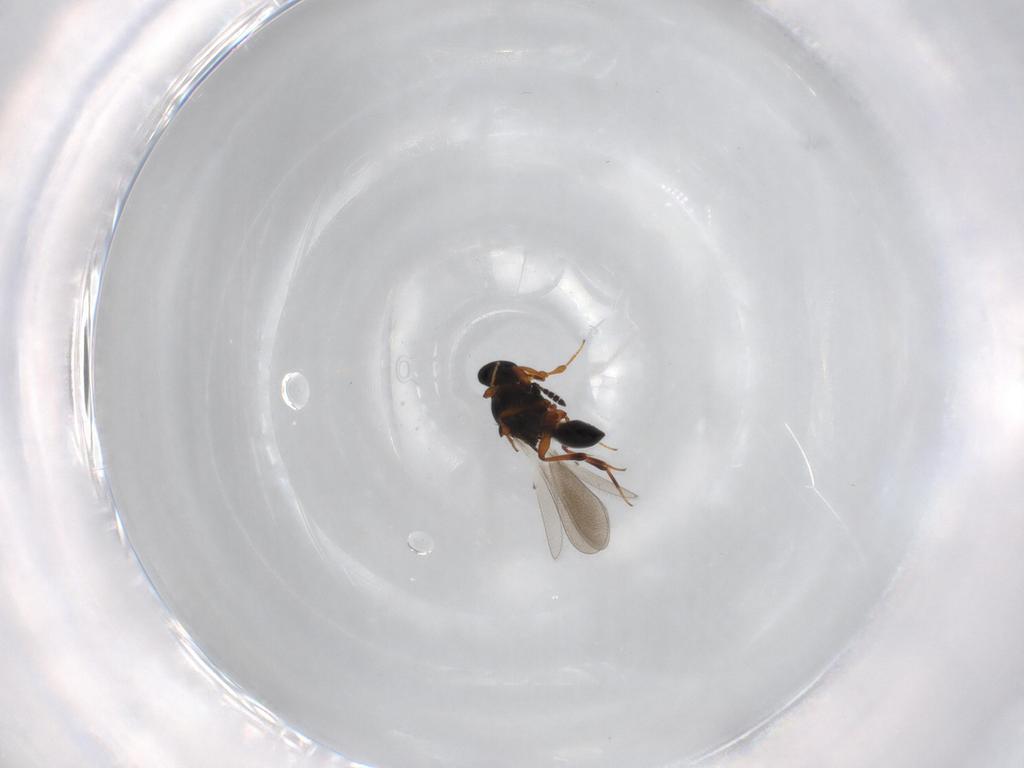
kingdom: Animalia
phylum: Arthropoda
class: Insecta
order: Hymenoptera
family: Platygastridae
